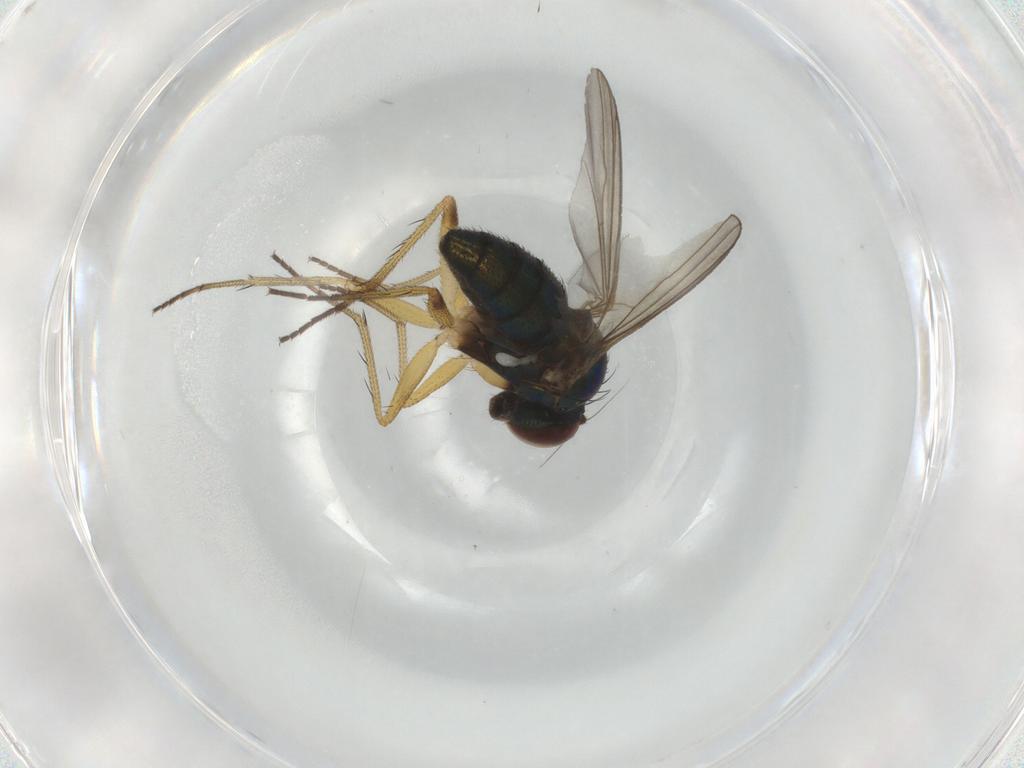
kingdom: Animalia
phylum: Arthropoda
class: Insecta
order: Diptera
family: Dolichopodidae
